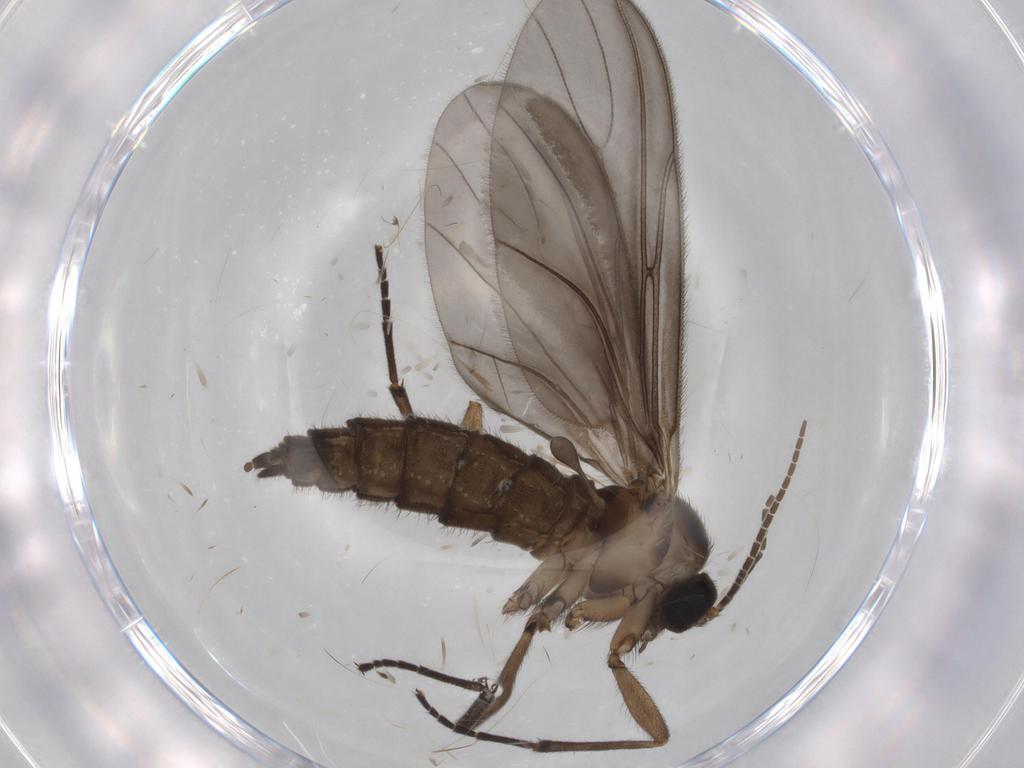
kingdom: Animalia
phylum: Arthropoda
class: Insecta
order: Diptera
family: Sciaridae
